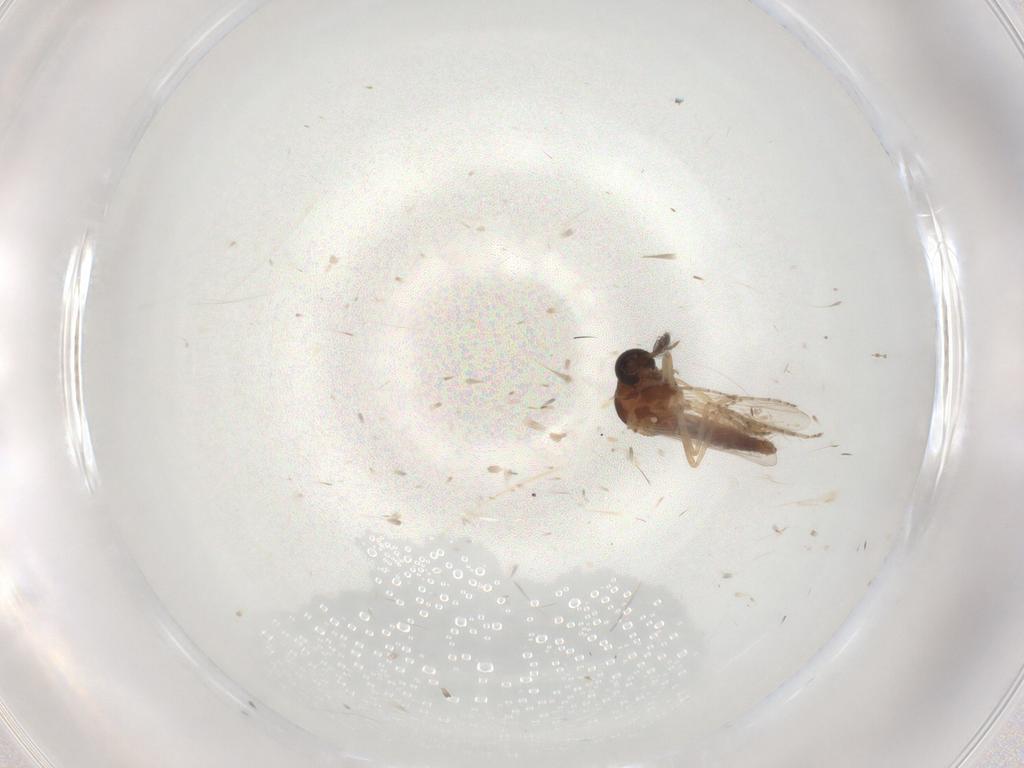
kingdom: Animalia
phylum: Arthropoda
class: Insecta
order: Diptera
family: Ceratopogonidae
